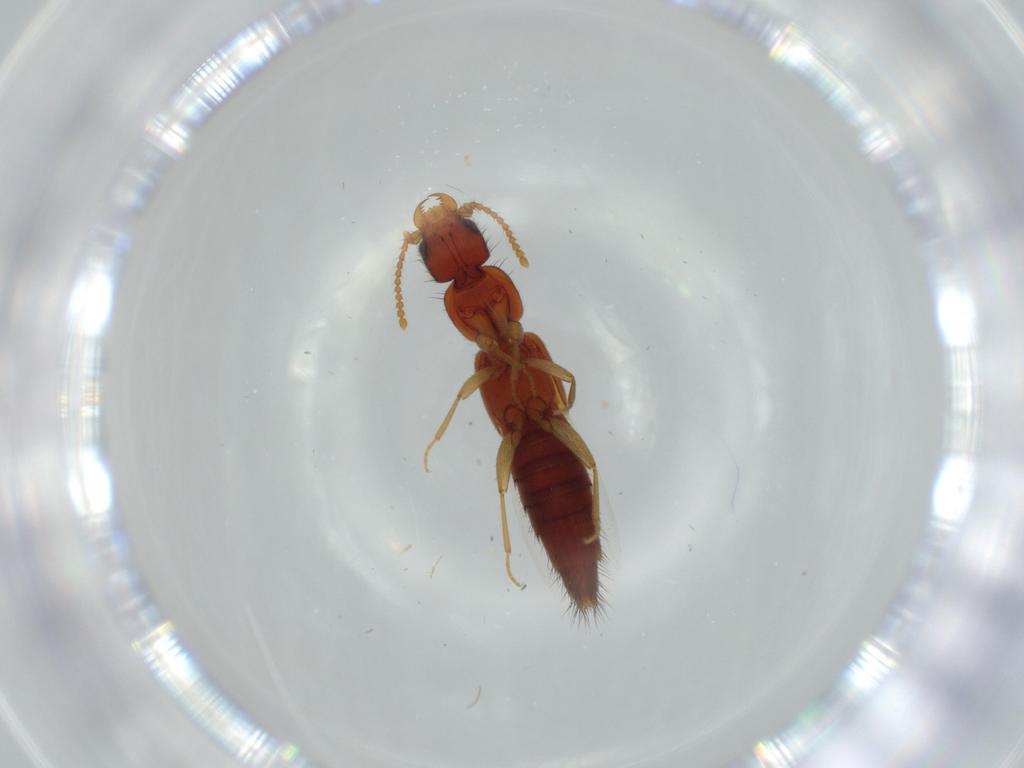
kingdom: Animalia
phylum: Arthropoda
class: Insecta
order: Coleoptera
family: Staphylinidae
